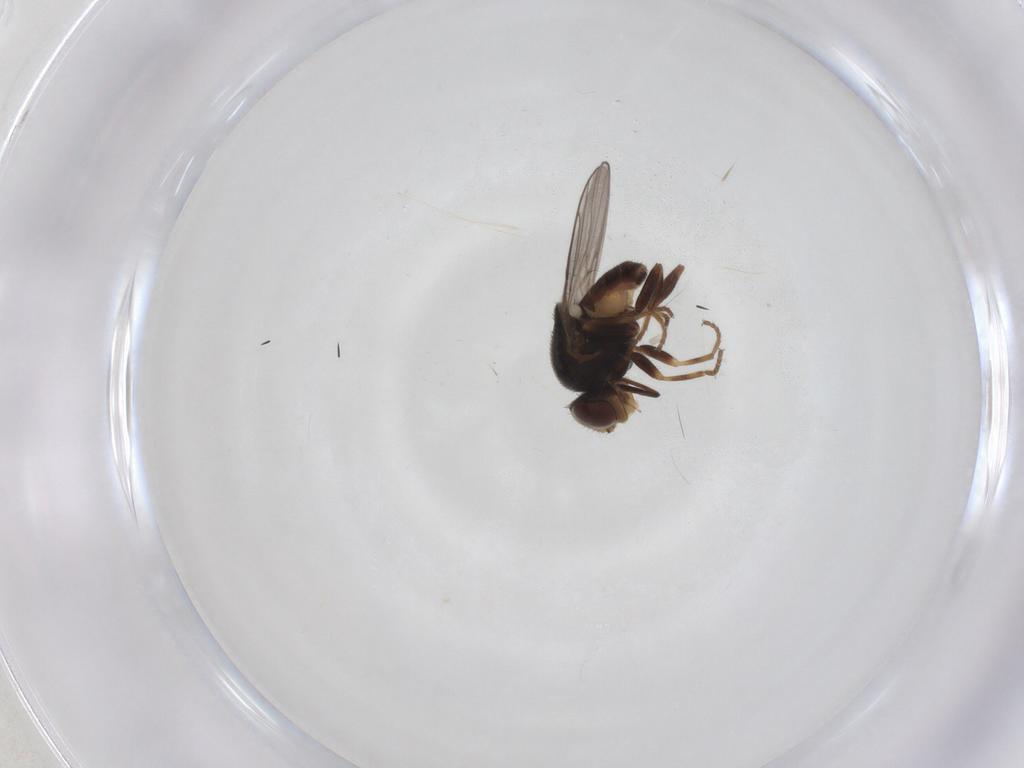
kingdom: Animalia
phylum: Arthropoda
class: Insecta
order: Diptera
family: Chloropidae
